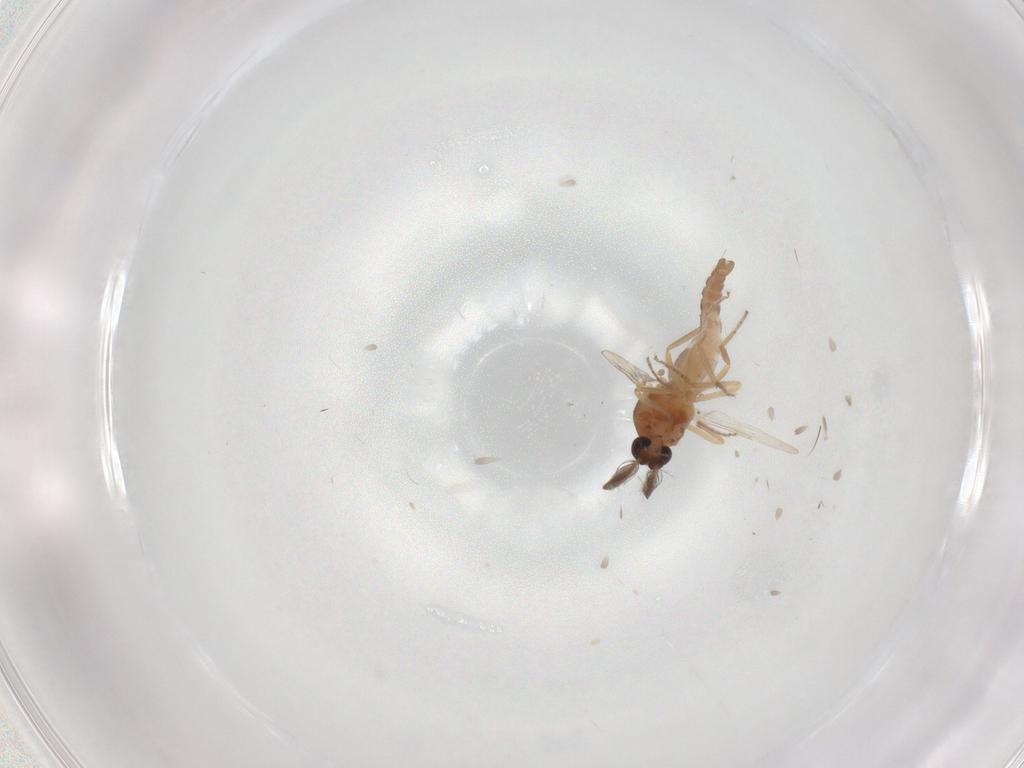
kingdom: Animalia
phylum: Arthropoda
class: Insecta
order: Diptera
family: Ceratopogonidae
